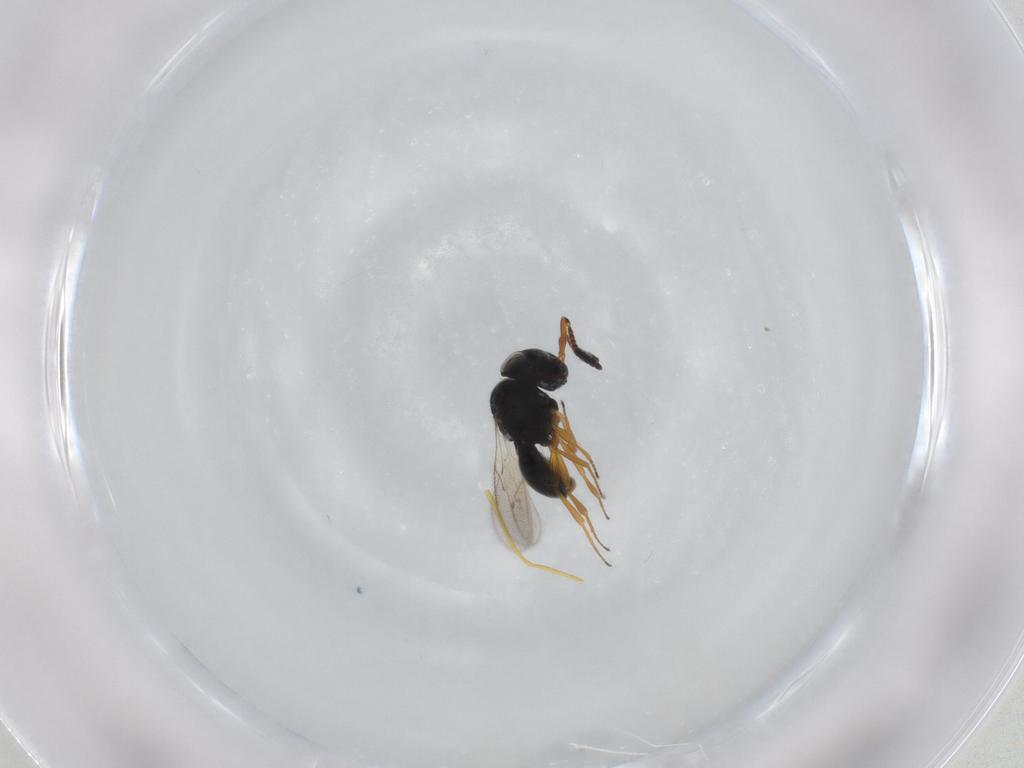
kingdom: Animalia
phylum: Arthropoda
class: Insecta
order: Hymenoptera
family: Scelionidae
